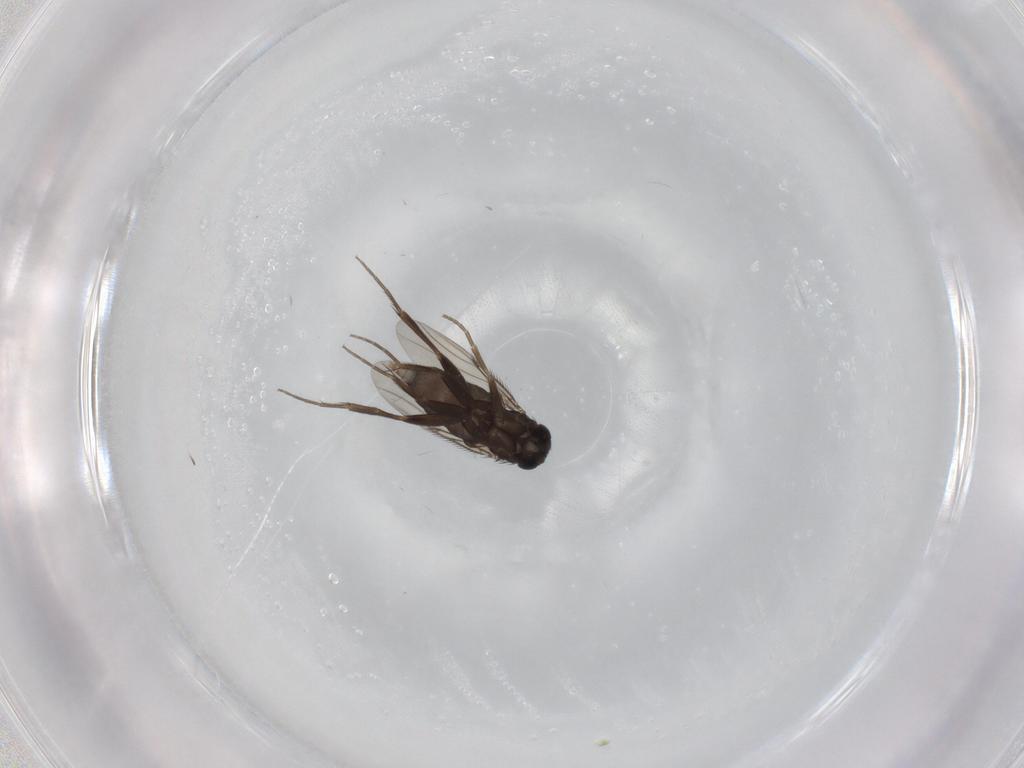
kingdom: Animalia
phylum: Arthropoda
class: Insecta
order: Diptera
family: Phoridae
